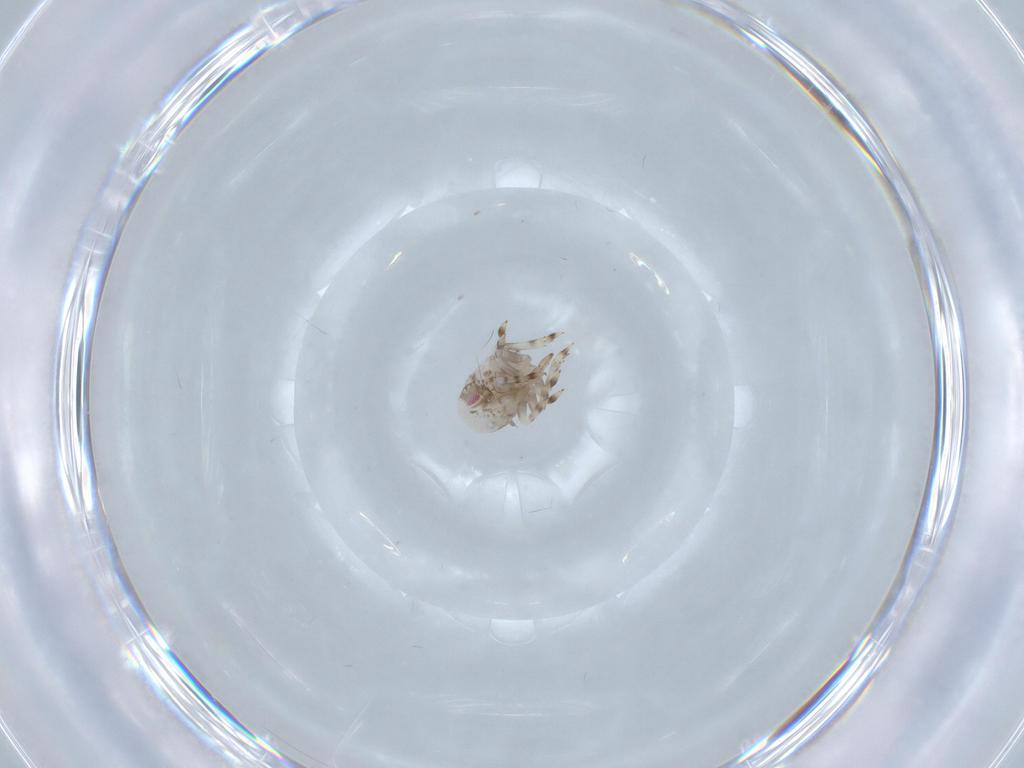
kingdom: Animalia
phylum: Arthropoda
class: Insecta
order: Hemiptera
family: Acanaloniidae
